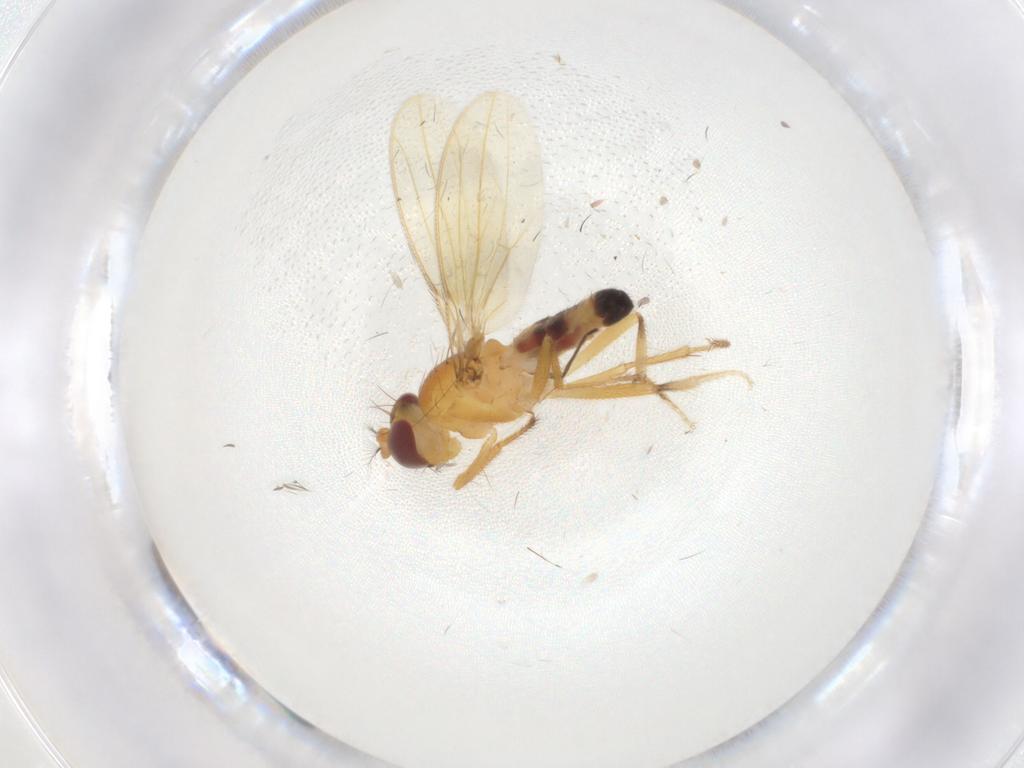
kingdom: Animalia
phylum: Arthropoda
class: Insecta
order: Diptera
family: Periscelididae
